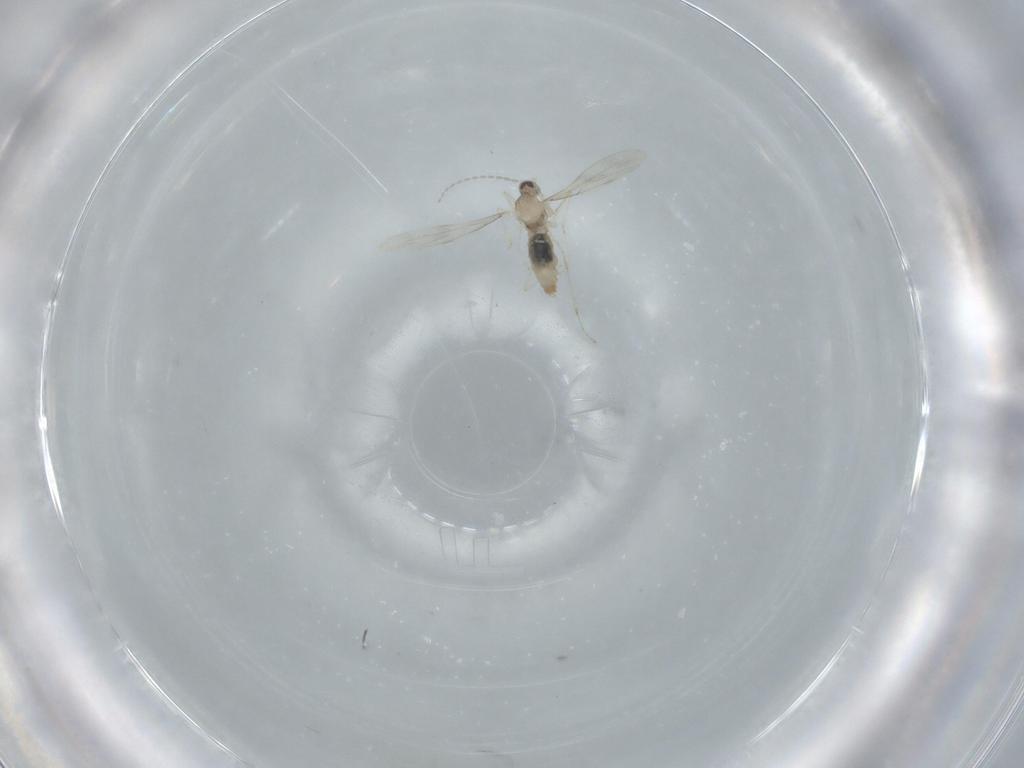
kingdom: Animalia
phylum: Arthropoda
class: Insecta
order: Diptera
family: Cecidomyiidae
